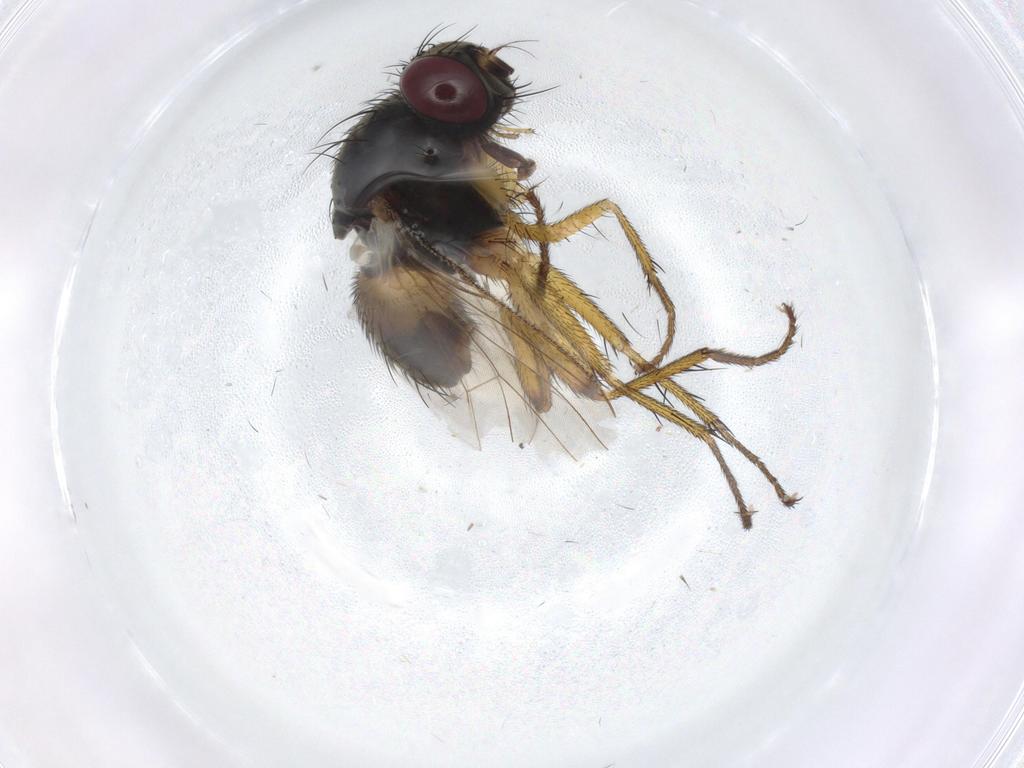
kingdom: Animalia
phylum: Arthropoda
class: Insecta
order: Diptera
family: Muscidae
